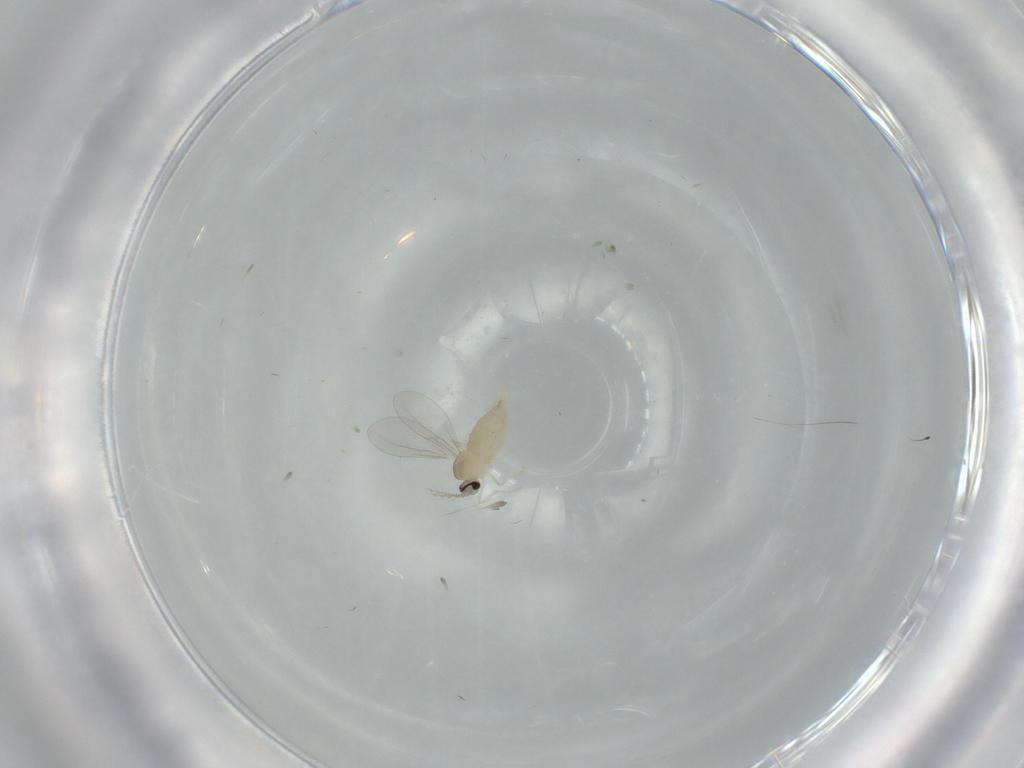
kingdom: Animalia
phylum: Arthropoda
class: Insecta
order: Diptera
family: Cecidomyiidae
